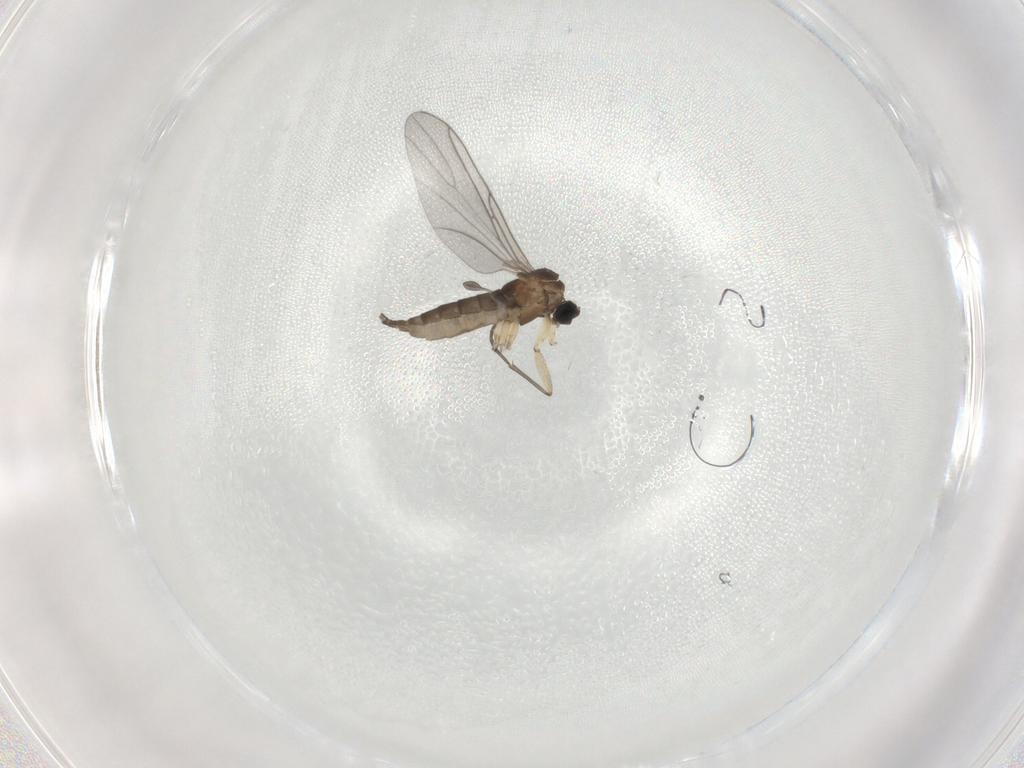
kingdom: Animalia
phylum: Arthropoda
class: Insecta
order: Diptera
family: Sciaridae
